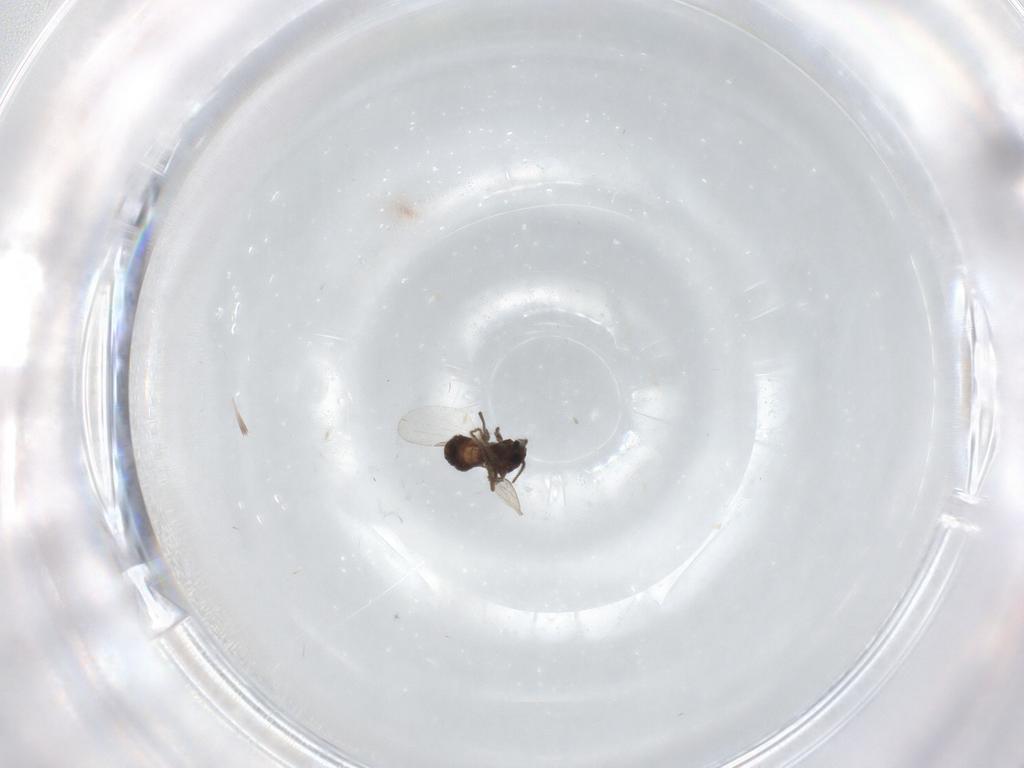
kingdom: Animalia
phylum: Arthropoda
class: Insecta
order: Diptera
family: Ceratopogonidae
